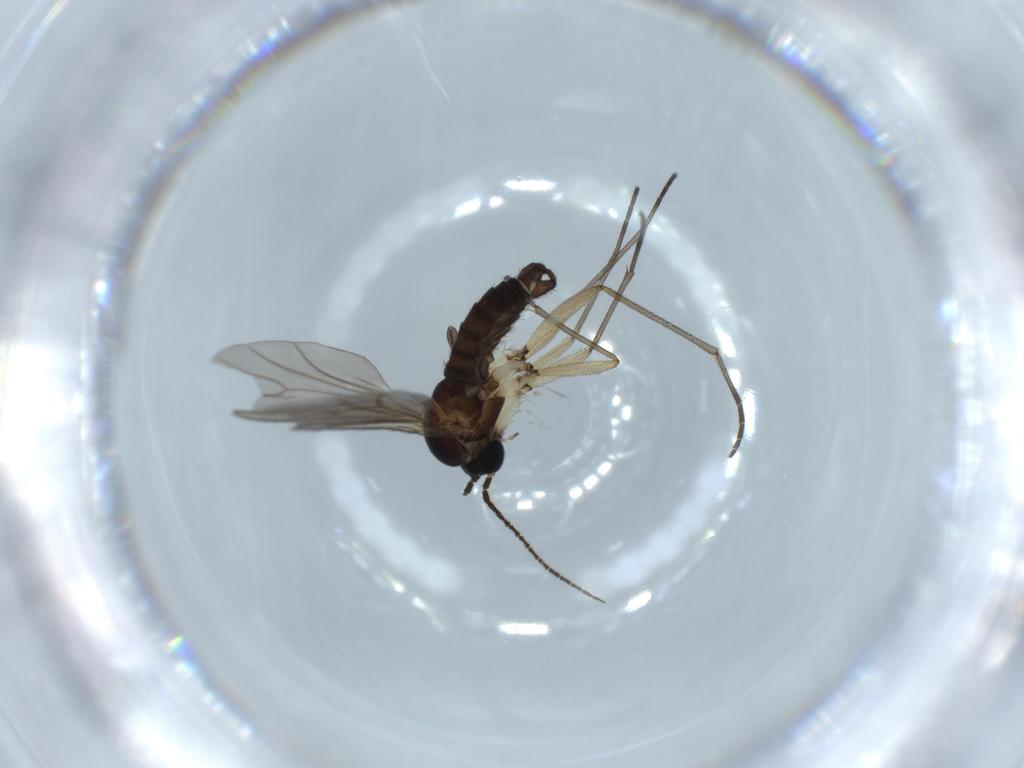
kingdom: Animalia
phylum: Arthropoda
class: Insecta
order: Diptera
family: Sciaridae
